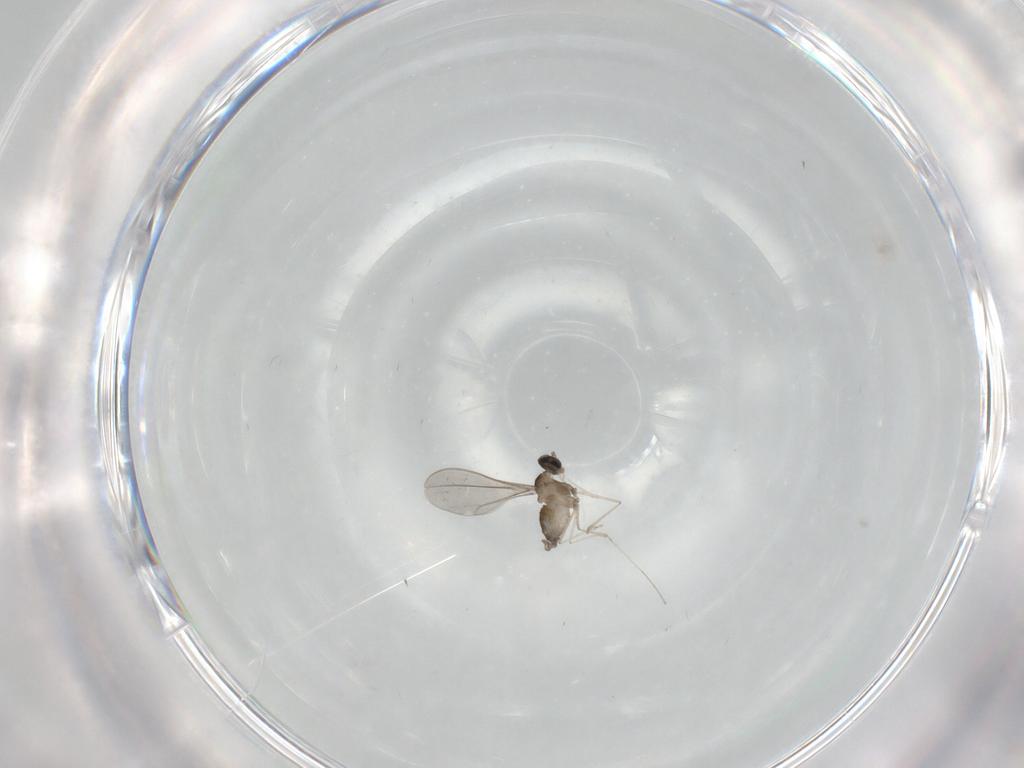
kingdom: Animalia
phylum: Arthropoda
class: Insecta
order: Diptera
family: Cecidomyiidae
